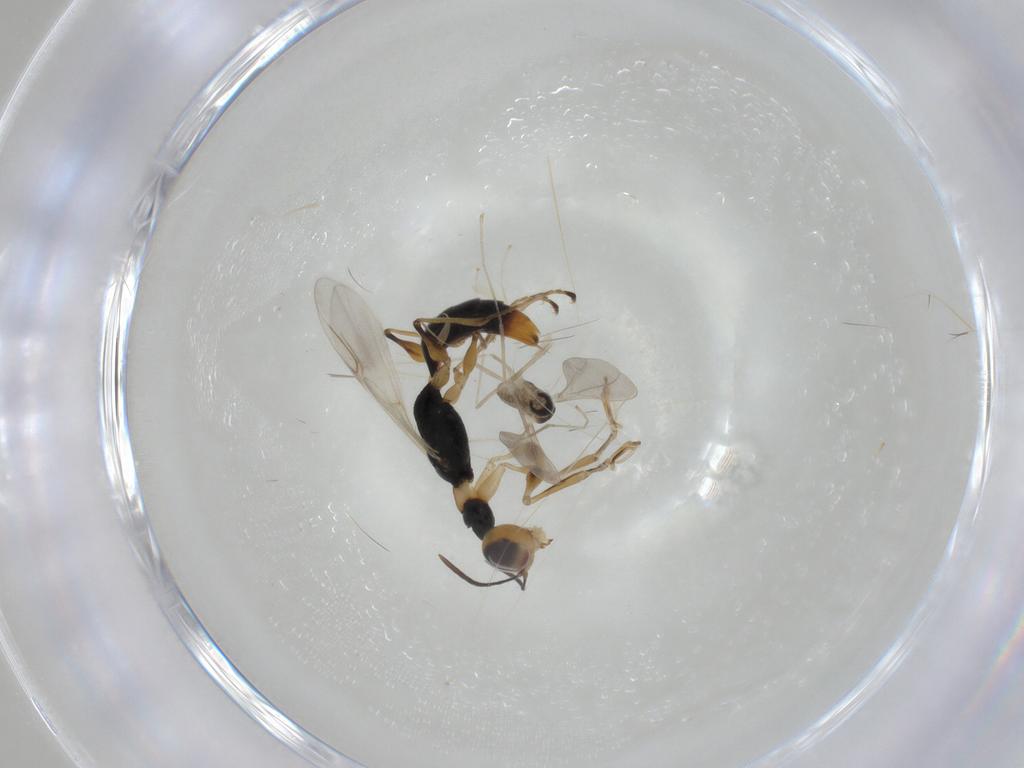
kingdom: Animalia
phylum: Arthropoda
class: Insecta
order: Diptera
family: Cecidomyiidae
